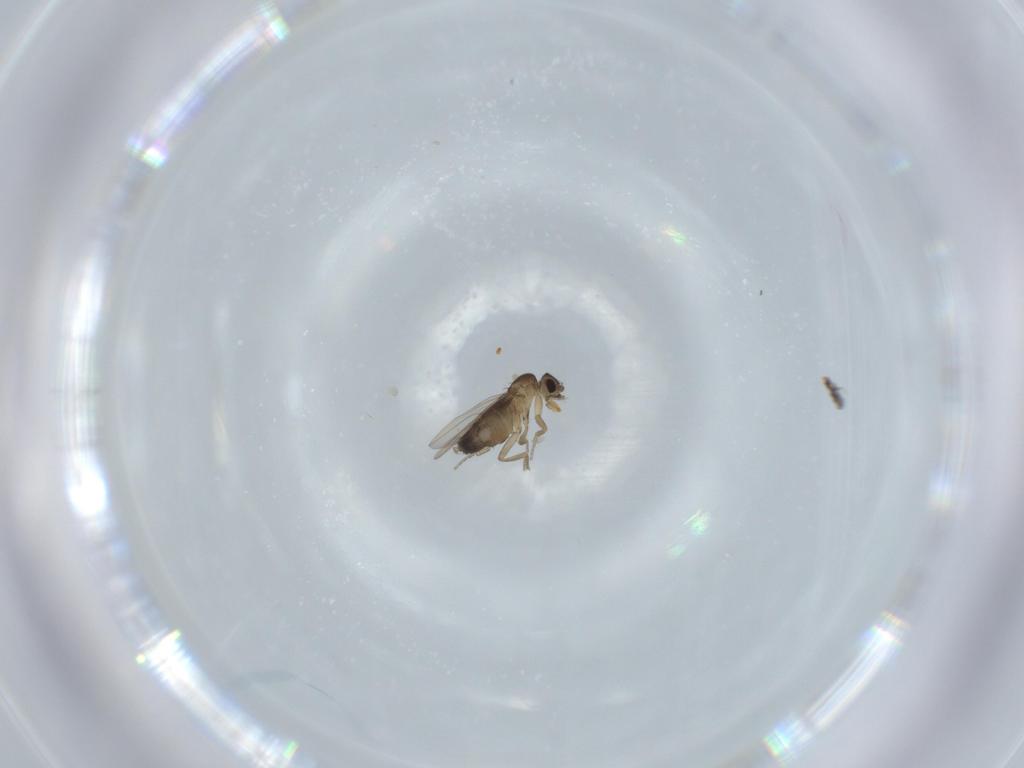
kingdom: Animalia
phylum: Arthropoda
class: Insecta
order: Diptera
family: Phoridae
